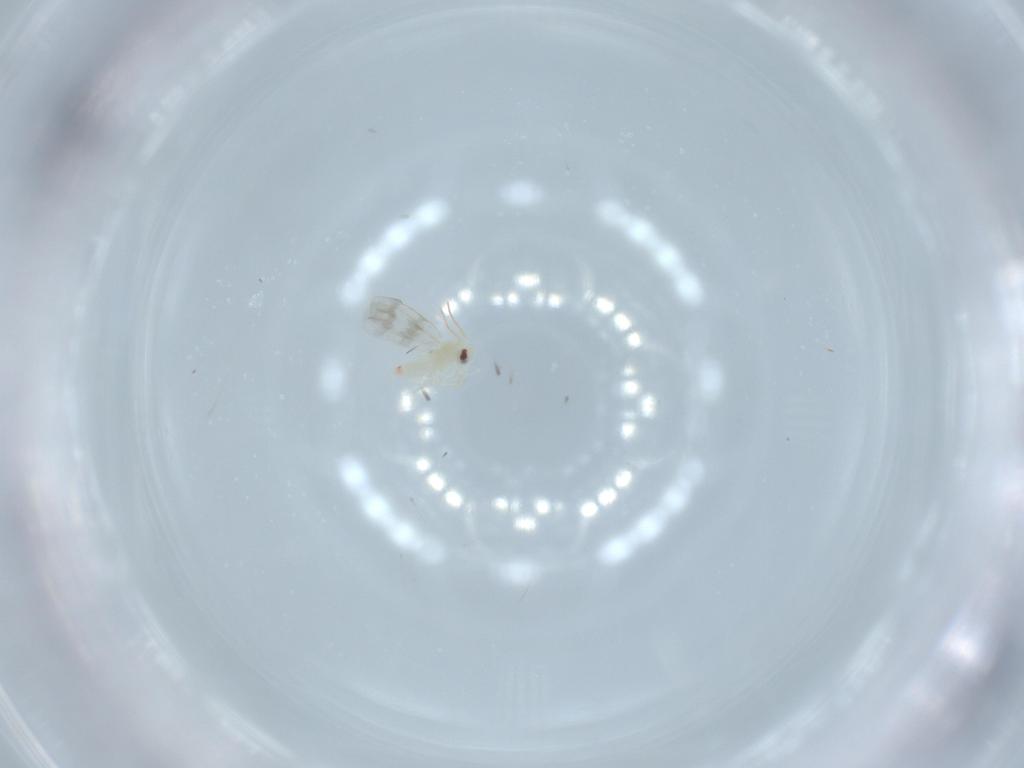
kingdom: Animalia
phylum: Arthropoda
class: Insecta
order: Hemiptera
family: Aleyrodidae
